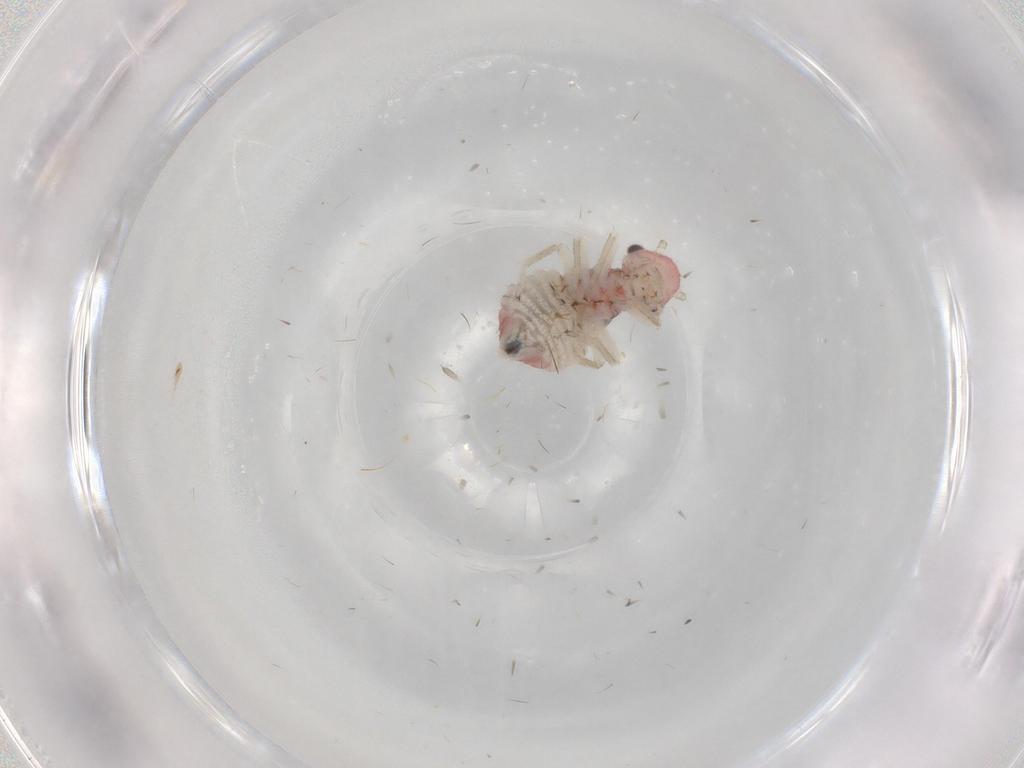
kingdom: Animalia
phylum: Arthropoda
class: Insecta
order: Psocodea
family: Amphipsocidae
